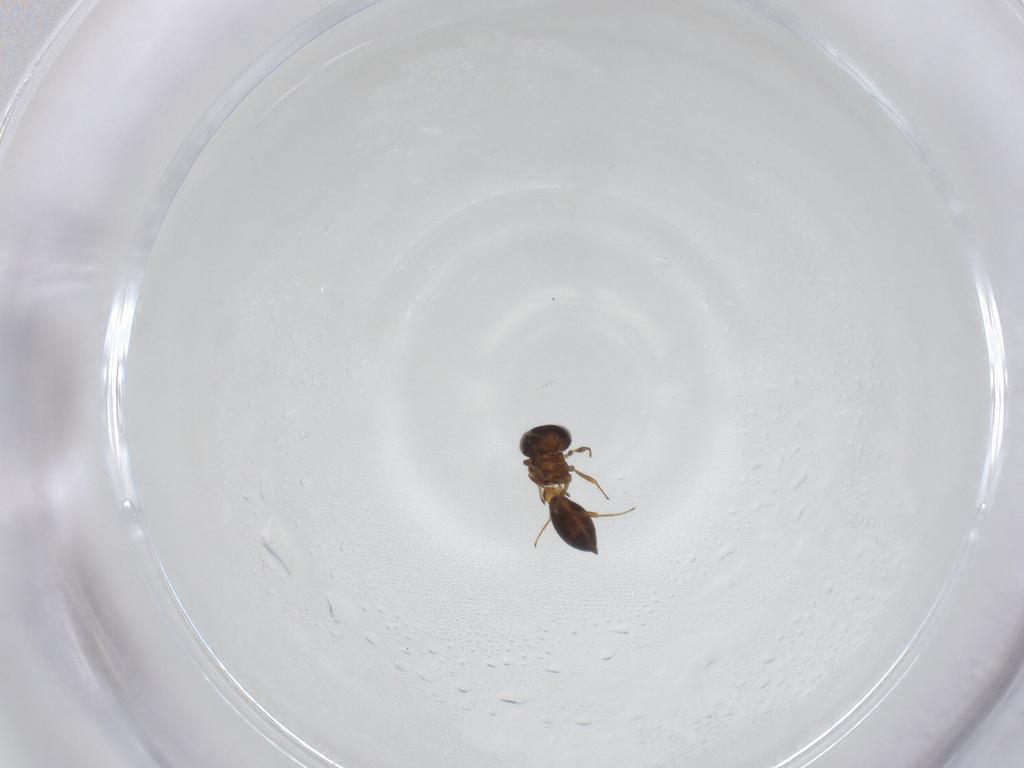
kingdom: Animalia
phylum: Arthropoda
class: Insecta
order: Hymenoptera
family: Scelionidae
